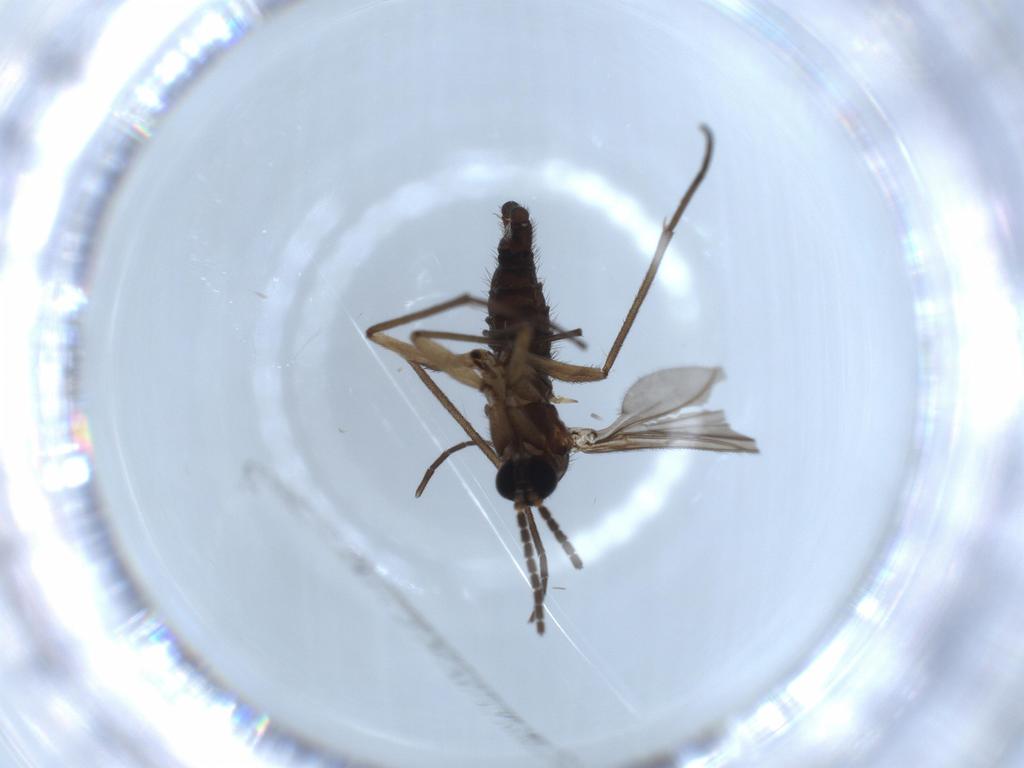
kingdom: Animalia
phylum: Arthropoda
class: Insecta
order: Diptera
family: Sciaridae
